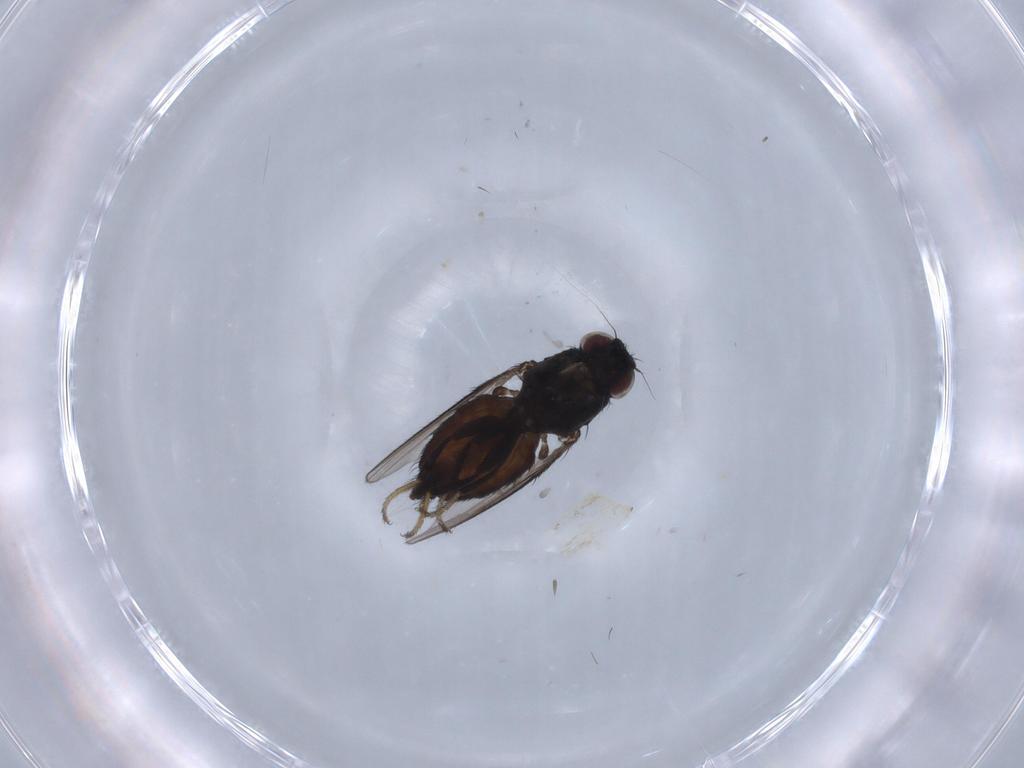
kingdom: Animalia
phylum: Arthropoda
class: Insecta
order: Diptera
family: Milichiidae
